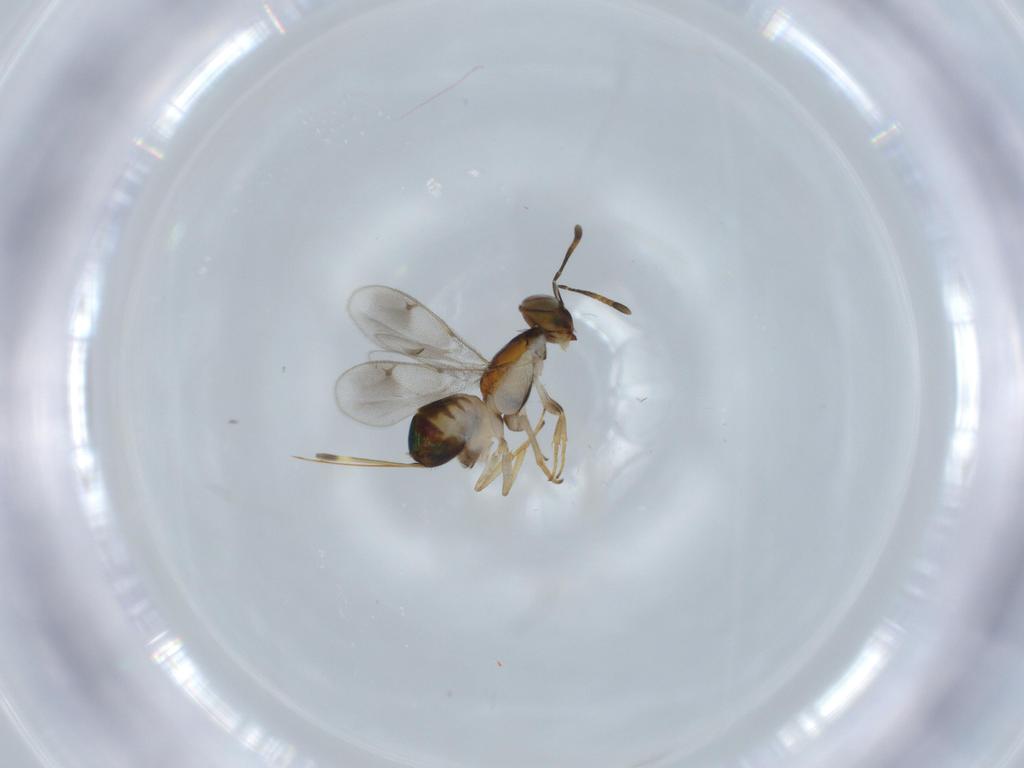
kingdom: Animalia
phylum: Arthropoda
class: Insecta
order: Hymenoptera
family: Pteromalidae
